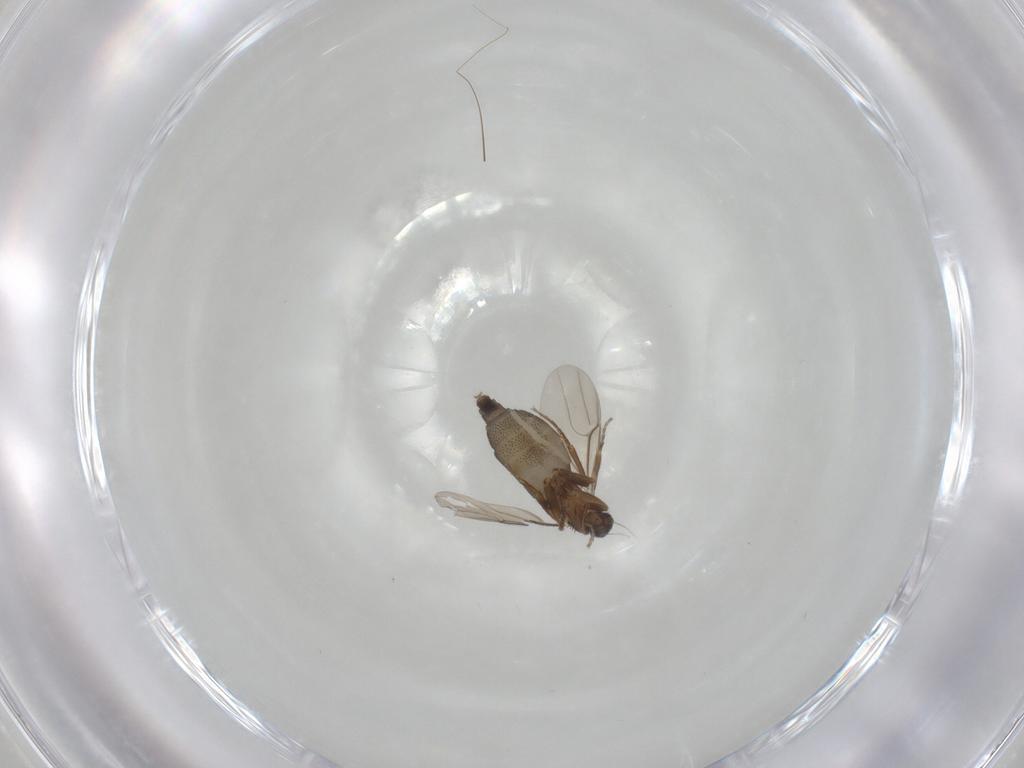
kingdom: Animalia
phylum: Arthropoda
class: Insecta
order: Diptera
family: Phoridae
